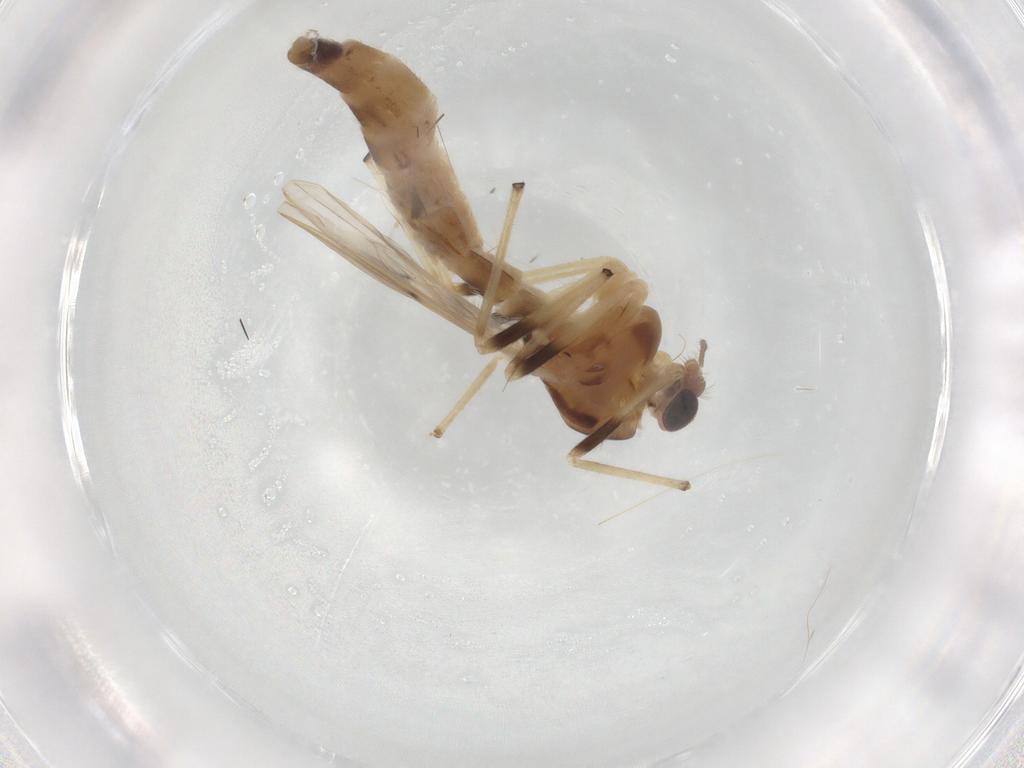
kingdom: Animalia
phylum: Arthropoda
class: Insecta
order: Diptera
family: Chironomidae
